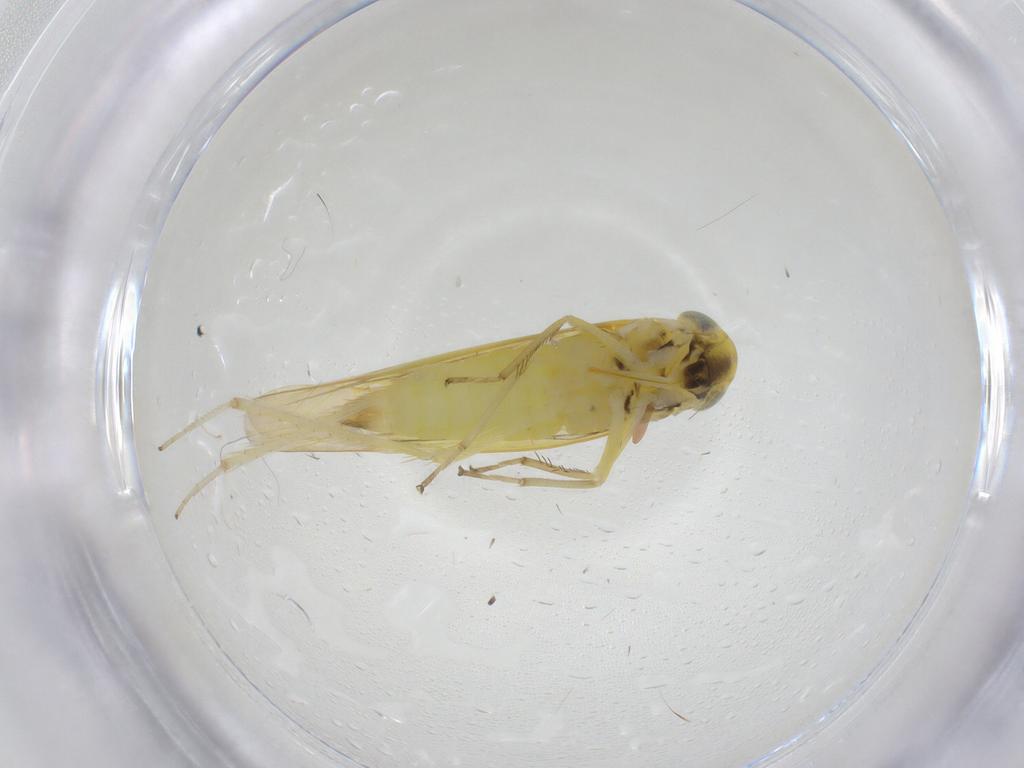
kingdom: Animalia
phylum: Arthropoda
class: Insecta
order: Hemiptera
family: Cicadellidae
